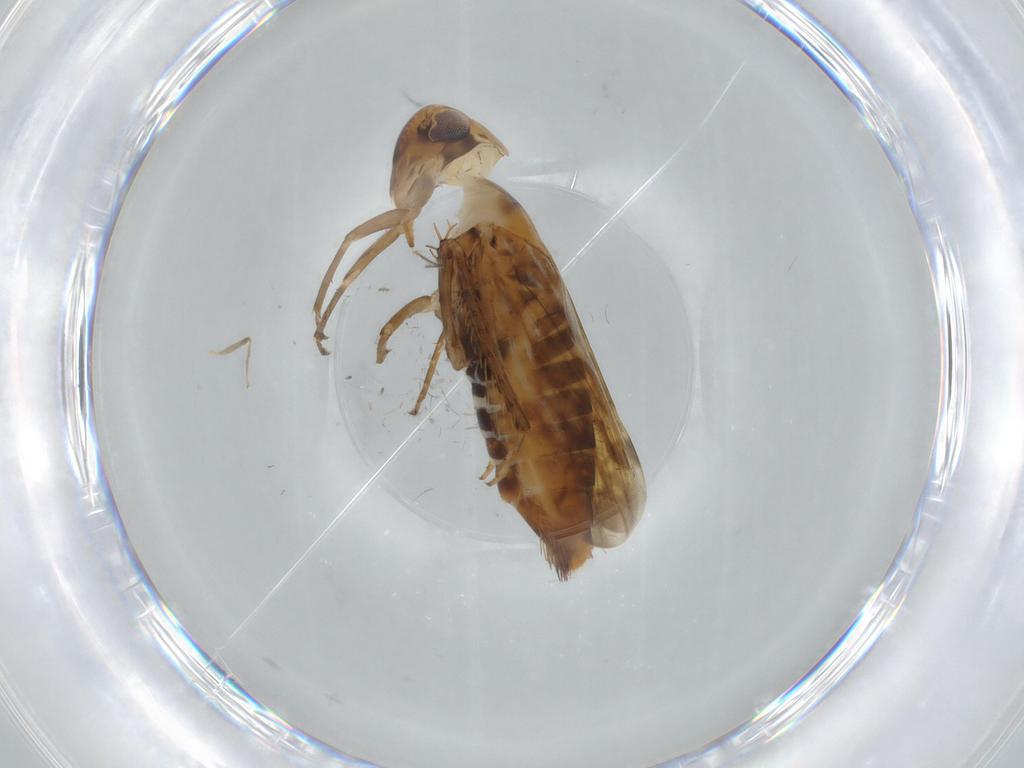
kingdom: Animalia
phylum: Arthropoda
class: Insecta
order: Hemiptera
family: Cicadellidae
